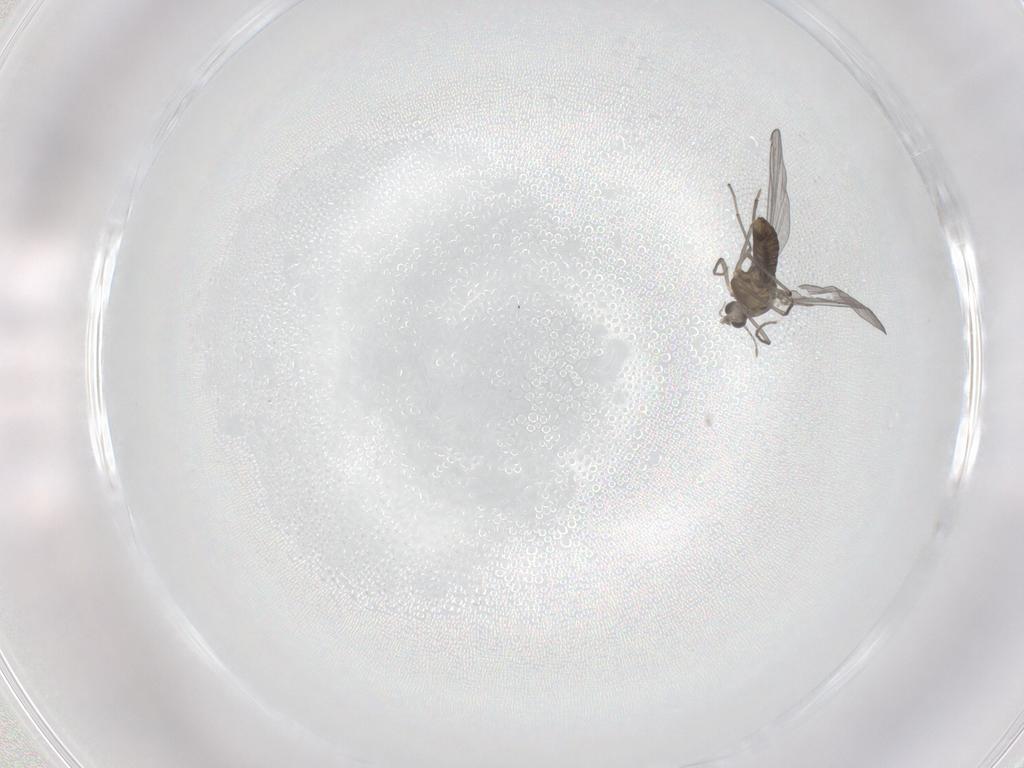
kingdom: Animalia
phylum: Arthropoda
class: Insecta
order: Diptera
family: Chironomidae
